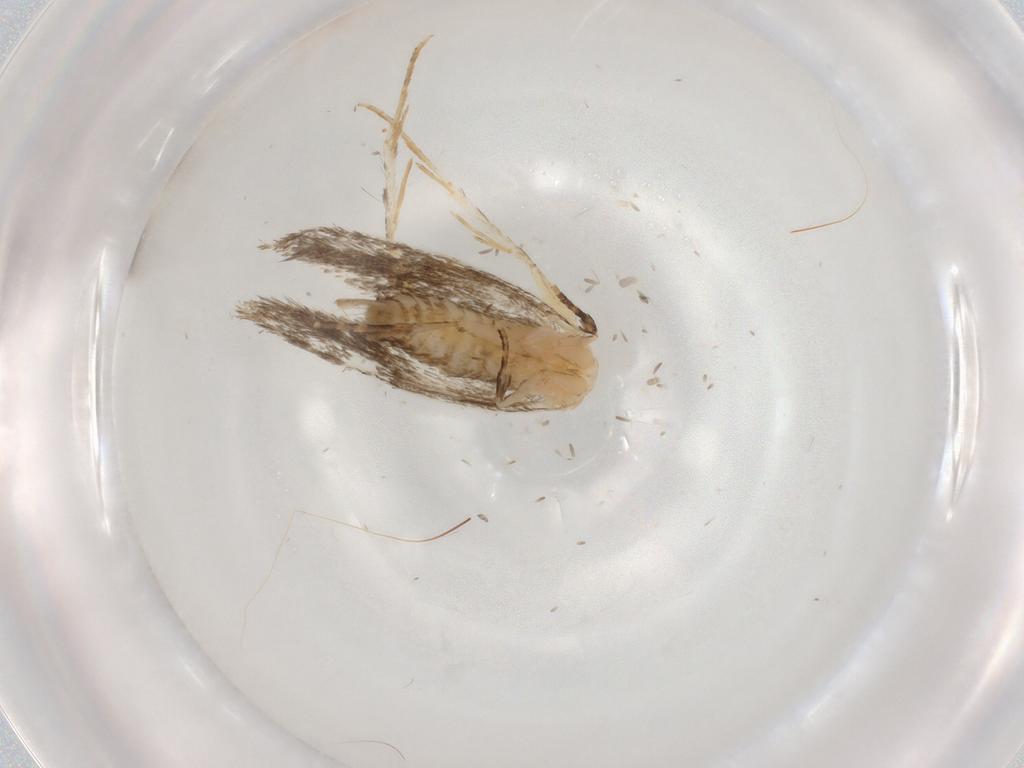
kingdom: Animalia
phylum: Arthropoda
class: Insecta
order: Lepidoptera
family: Tineidae
